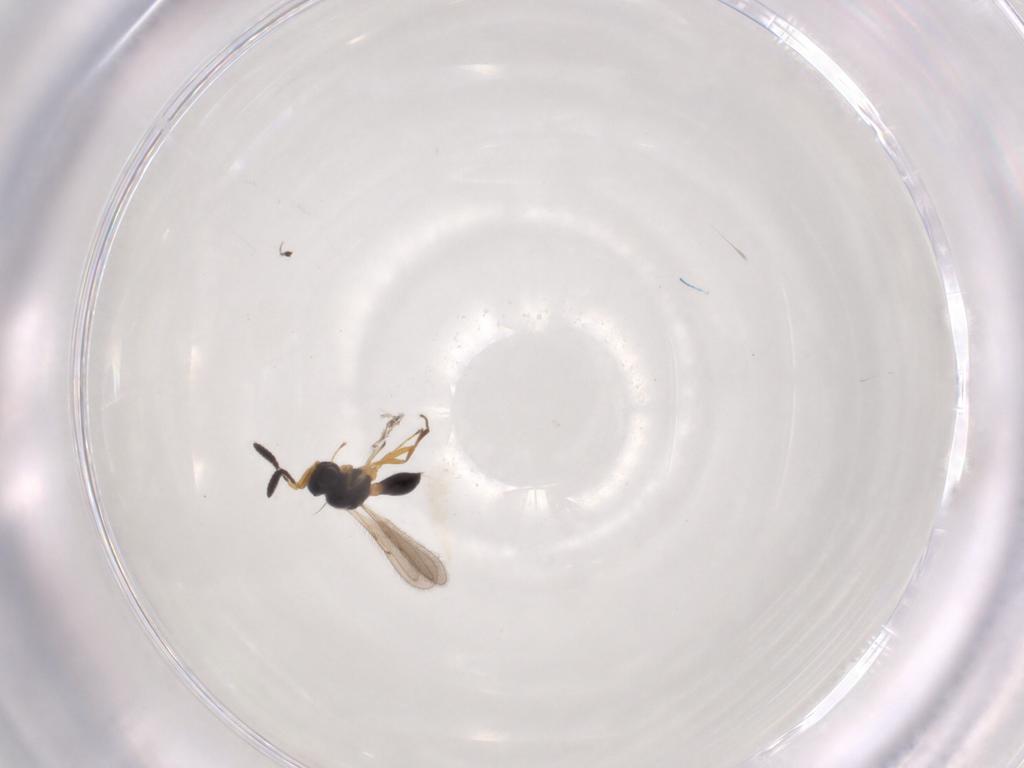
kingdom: Animalia
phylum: Arthropoda
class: Insecta
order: Hymenoptera
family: Scelionidae
